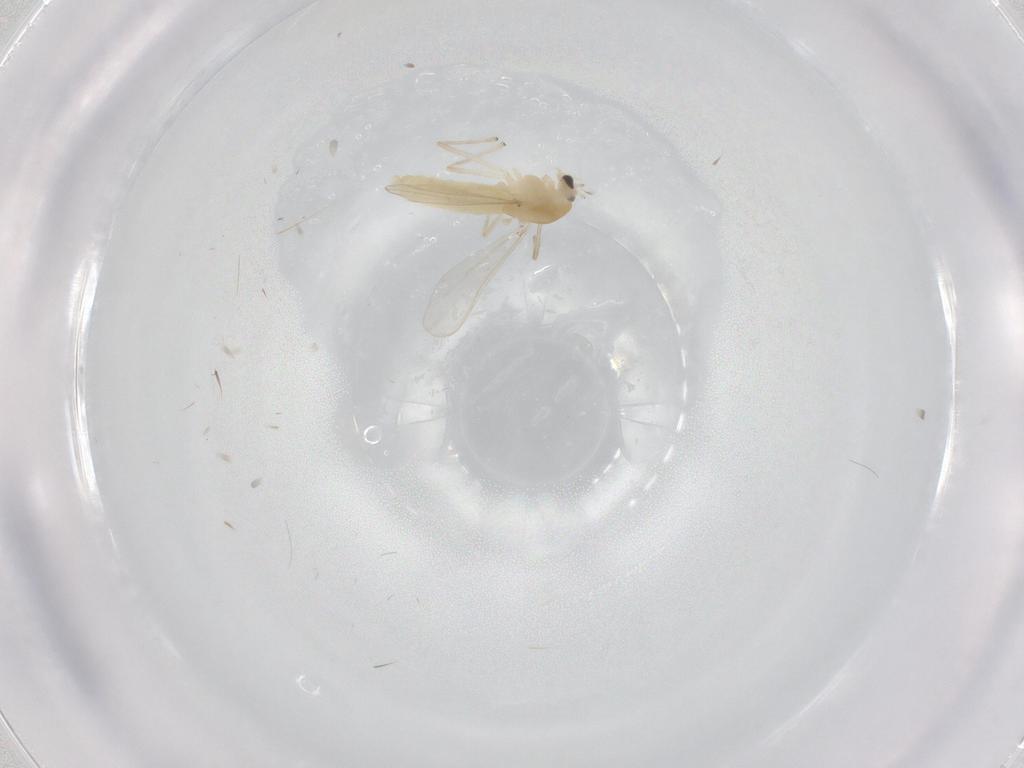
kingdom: Animalia
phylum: Arthropoda
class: Insecta
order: Diptera
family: Chironomidae
